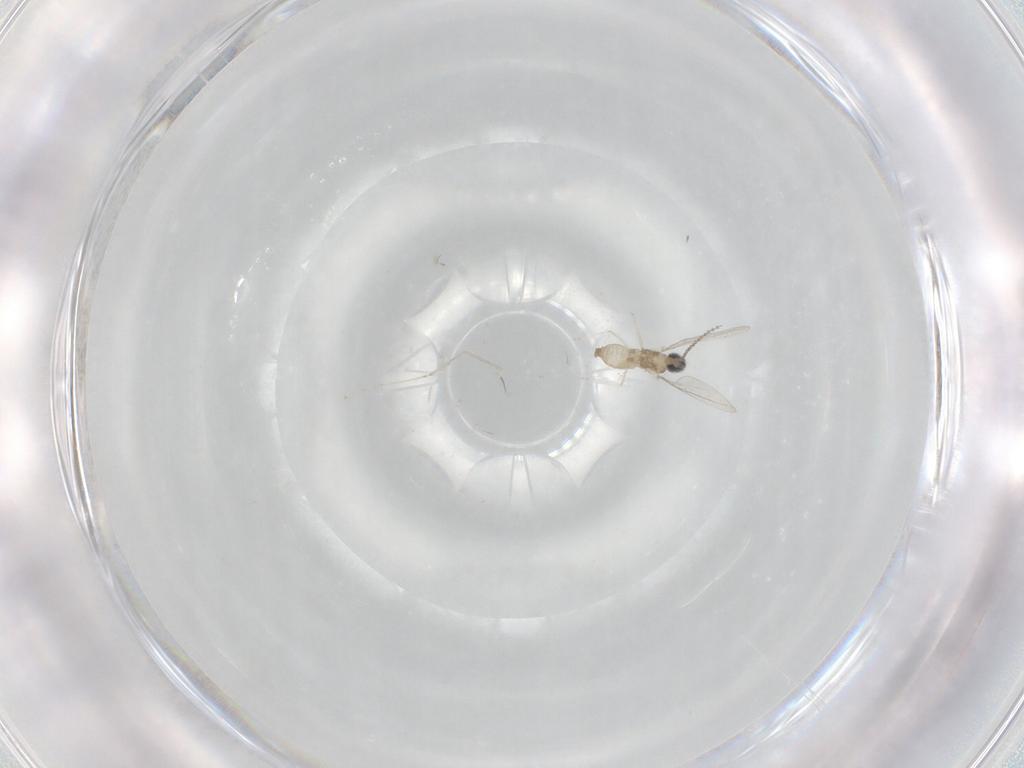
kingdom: Animalia
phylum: Arthropoda
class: Insecta
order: Diptera
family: Cecidomyiidae
